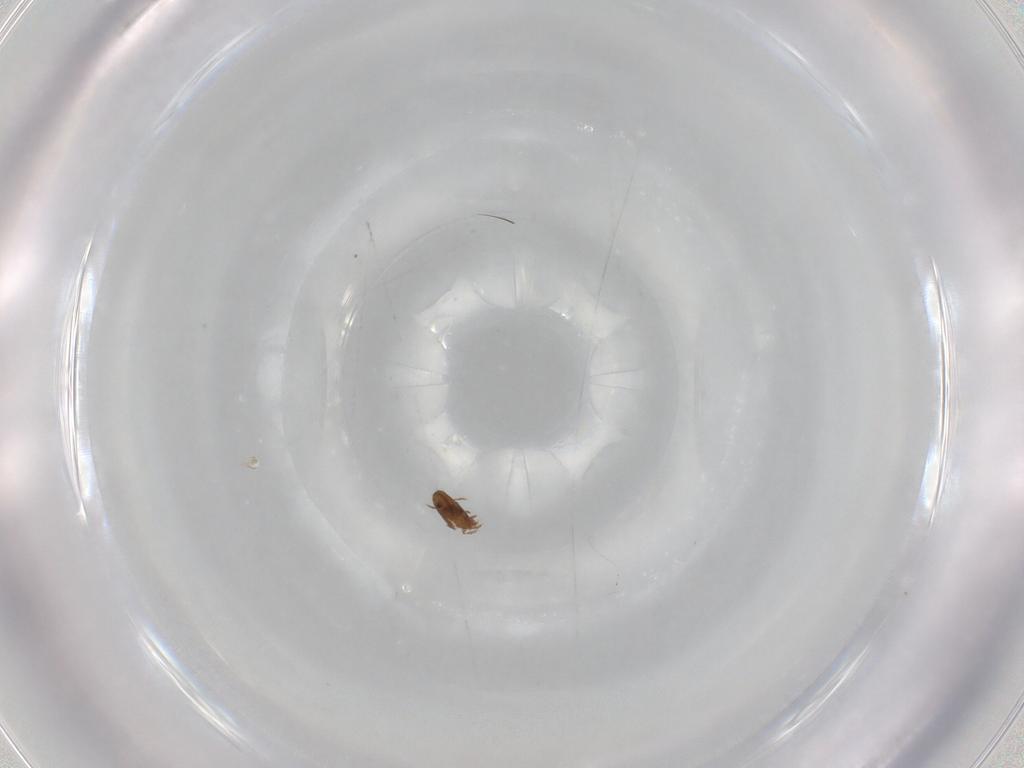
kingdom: Animalia
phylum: Arthropoda
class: Arachnida
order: Sarcoptiformes
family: Oribatulidae
